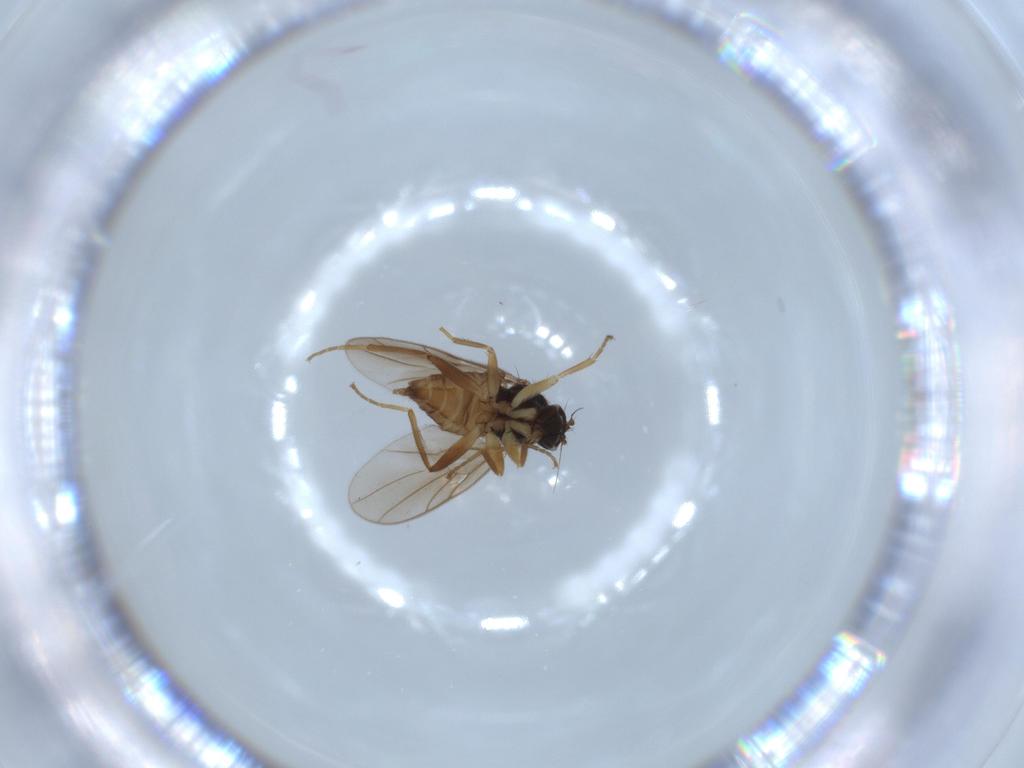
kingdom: Animalia
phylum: Arthropoda
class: Insecta
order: Diptera
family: Hybotidae
